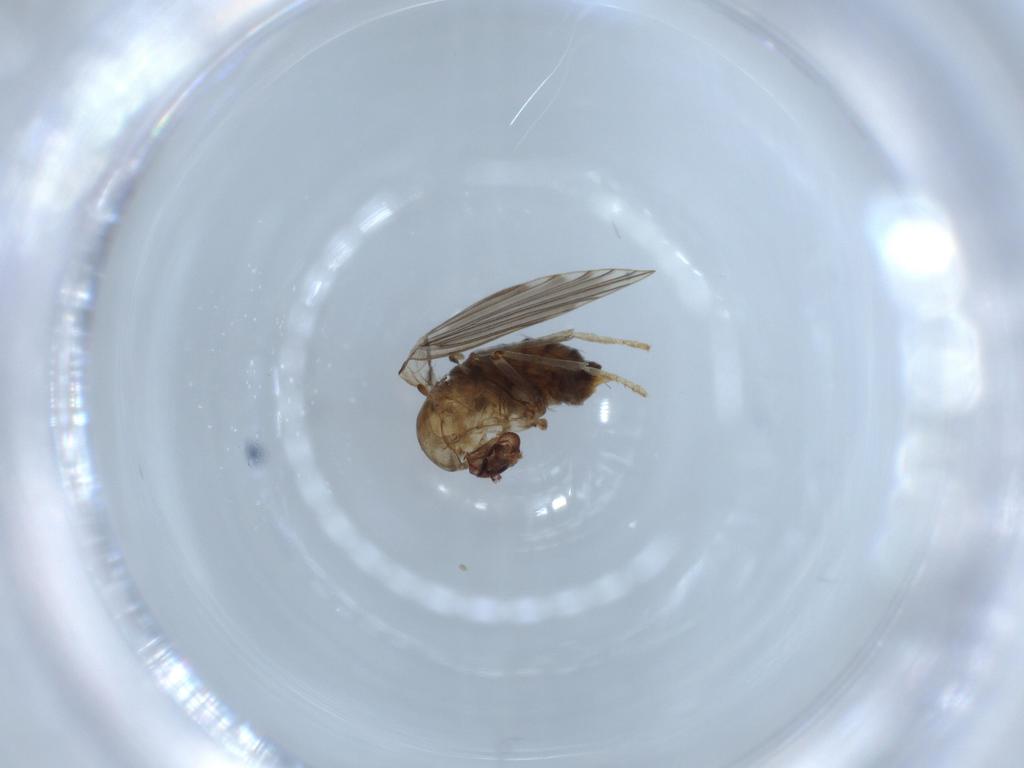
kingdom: Animalia
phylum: Arthropoda
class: Insecta
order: Diptera
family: Psychodidae
